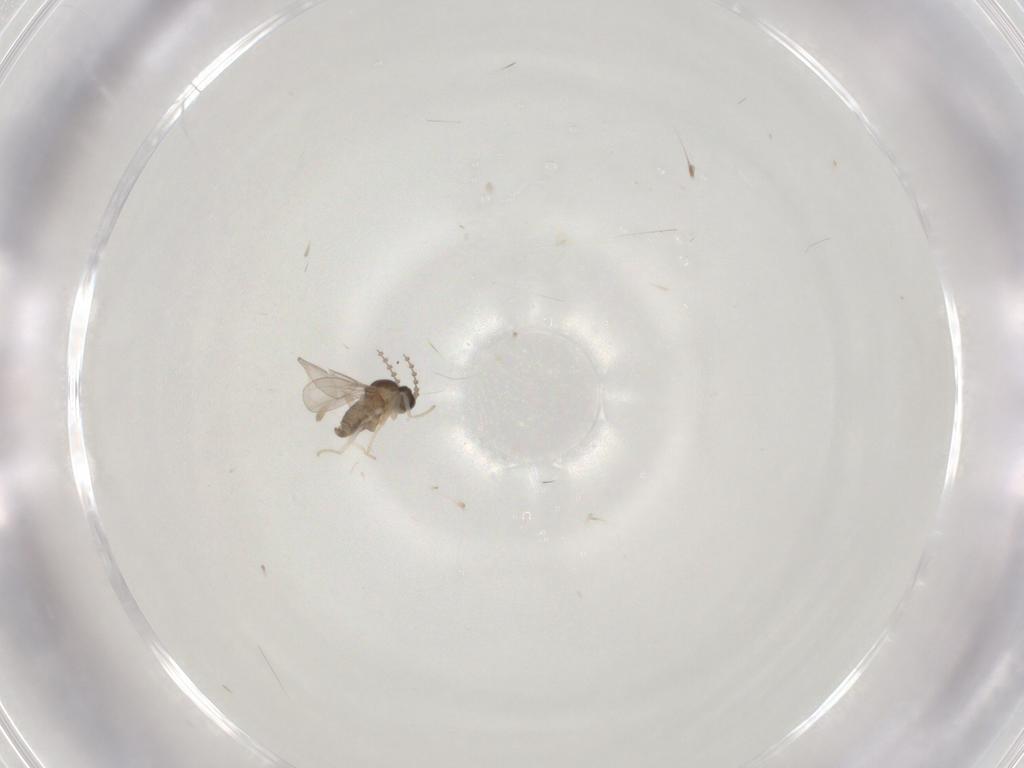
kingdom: Animalia
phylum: Arthropoda
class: Insecta
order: Diptera
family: Cecidomyiidae
